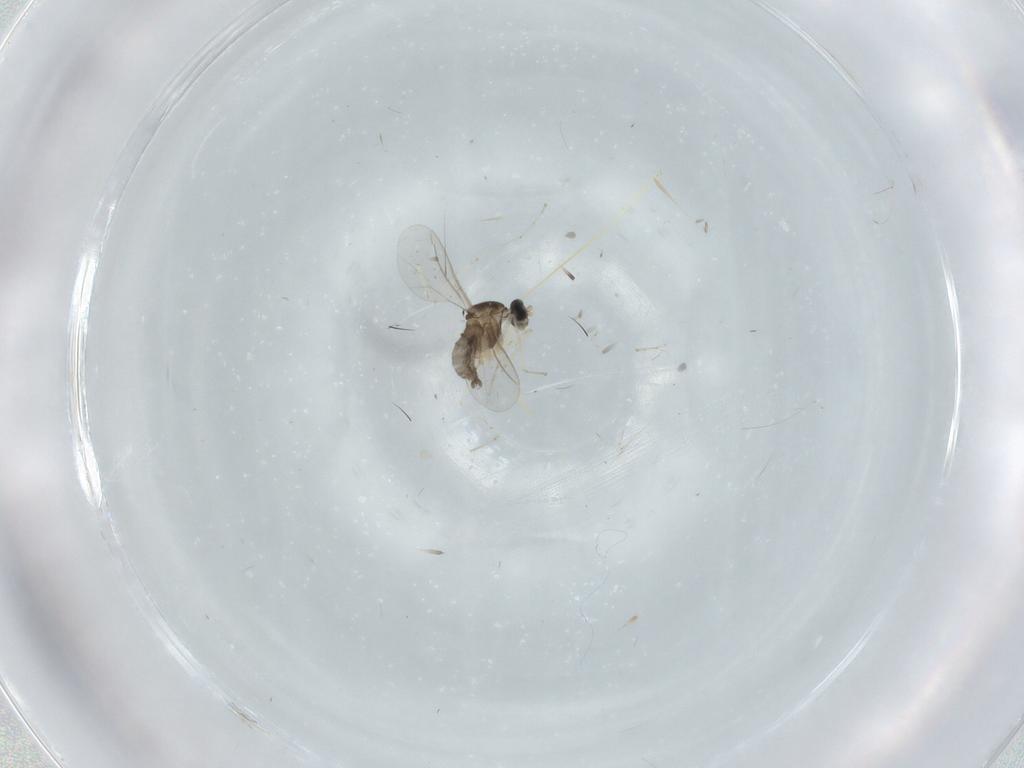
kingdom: Animalia
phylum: Arthropoda
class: Insecta
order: Diptera
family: Cecidomyiidae
